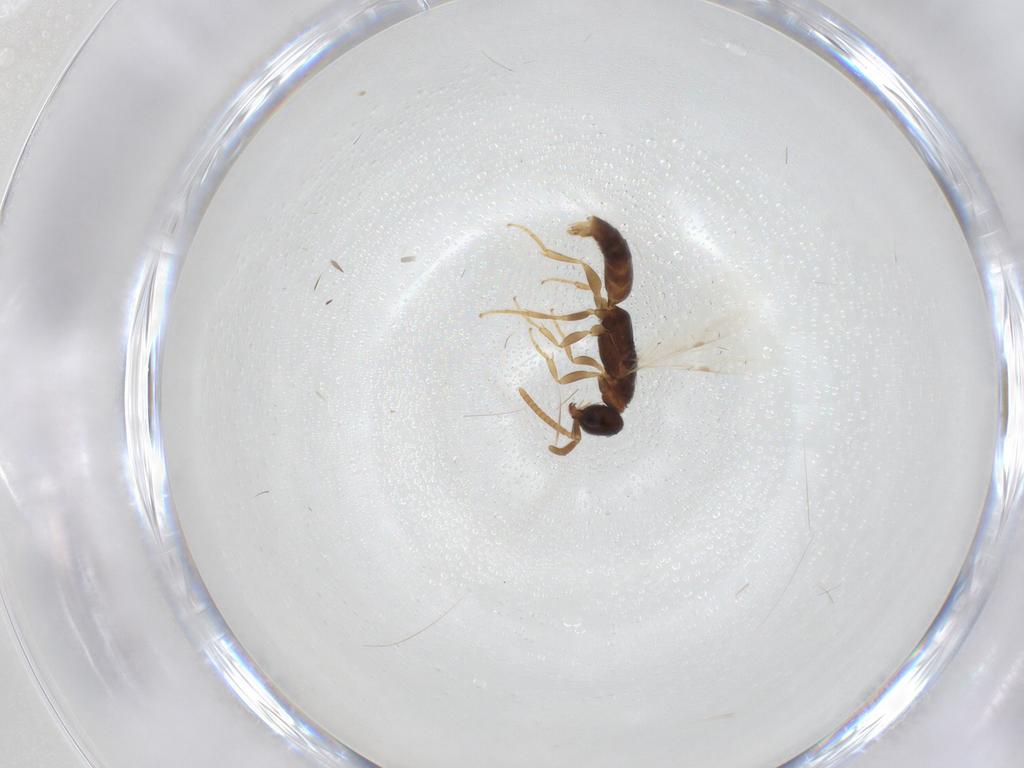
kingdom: Animalia
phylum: Arthropoda
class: Insecta
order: Hymenoptera
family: Bethylidae
